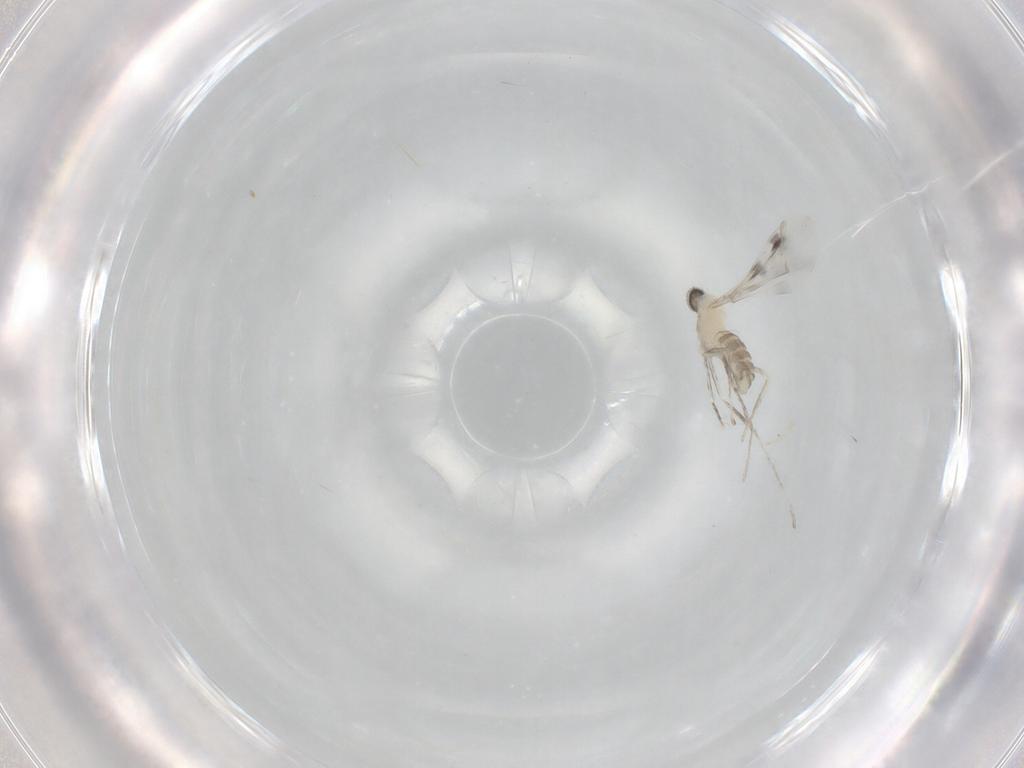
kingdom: Animalia
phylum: Arthropoda
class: Insecta
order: Diptera
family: Cecidomyiidae
